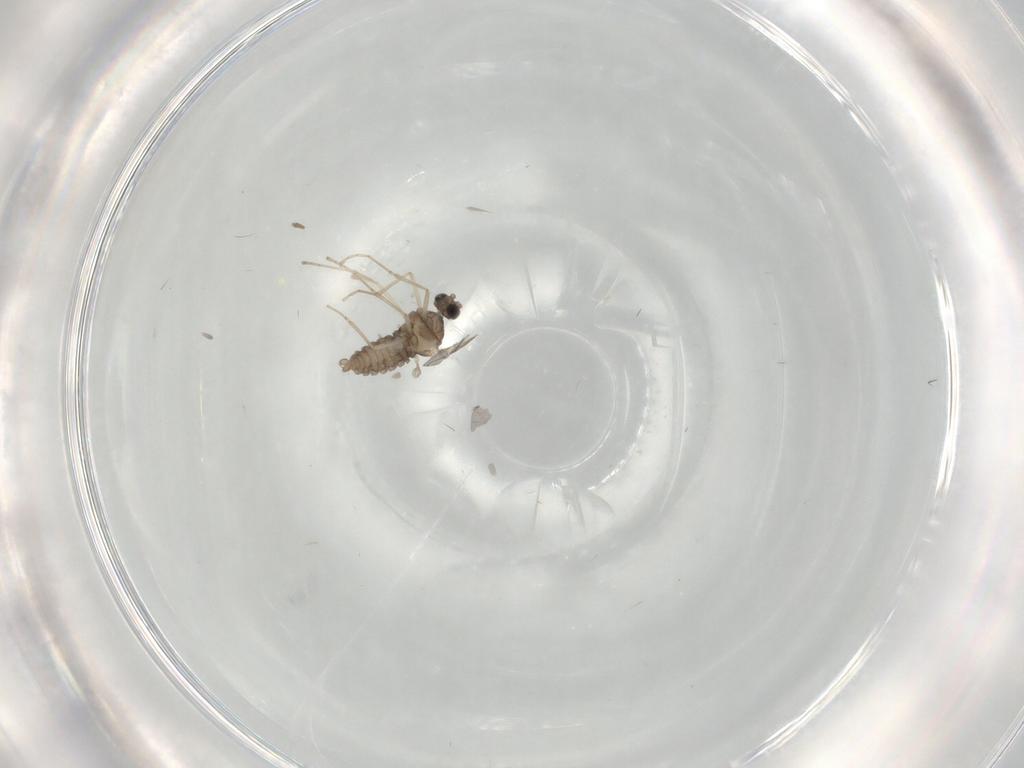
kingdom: Animalia
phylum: Arthropoda
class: Insecta
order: Diptera
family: Cecidomyiidae
